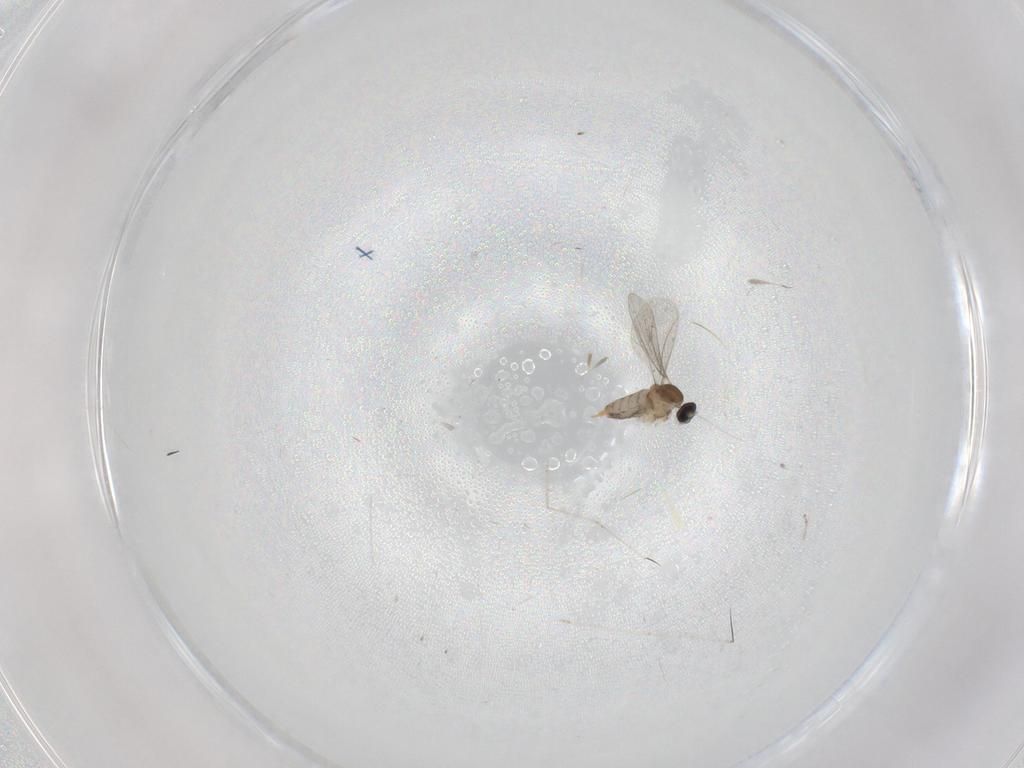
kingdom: Animalia
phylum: Arthropoda
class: Insecta
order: Diptera
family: Cecidomyiidae
